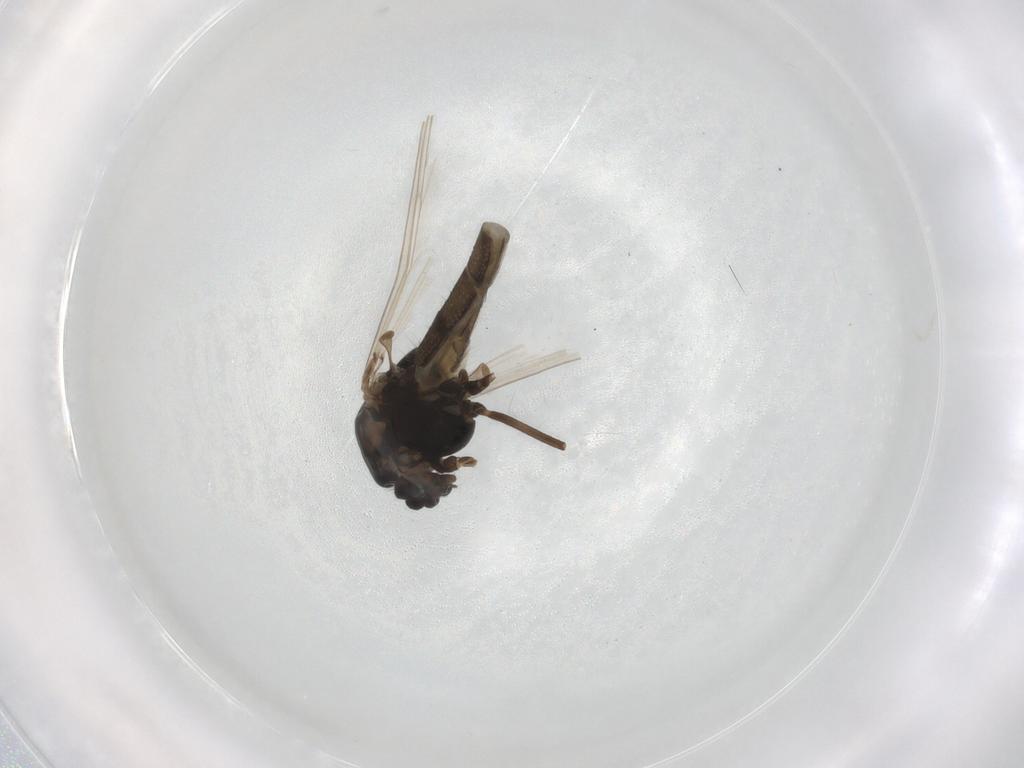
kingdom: Animalia
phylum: Arthropoda
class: Insecta
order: Diptera
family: Chironomidae
